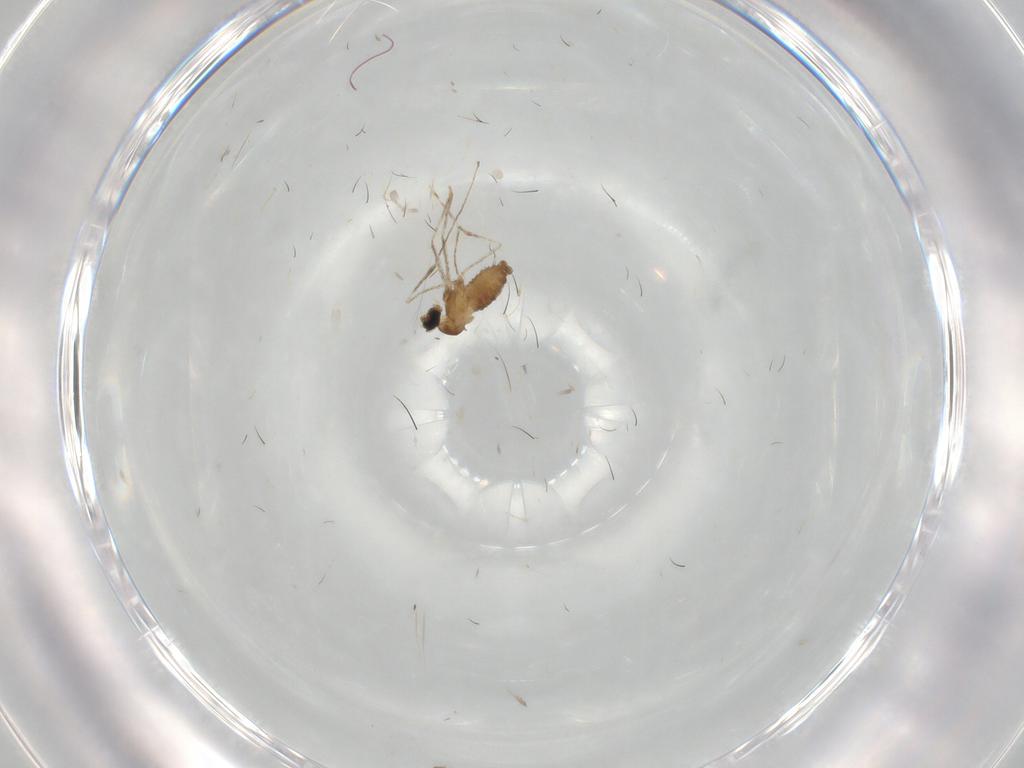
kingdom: Animalia
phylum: Arthropoda
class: Insecta
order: Diptera
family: Cecidomyiidae
